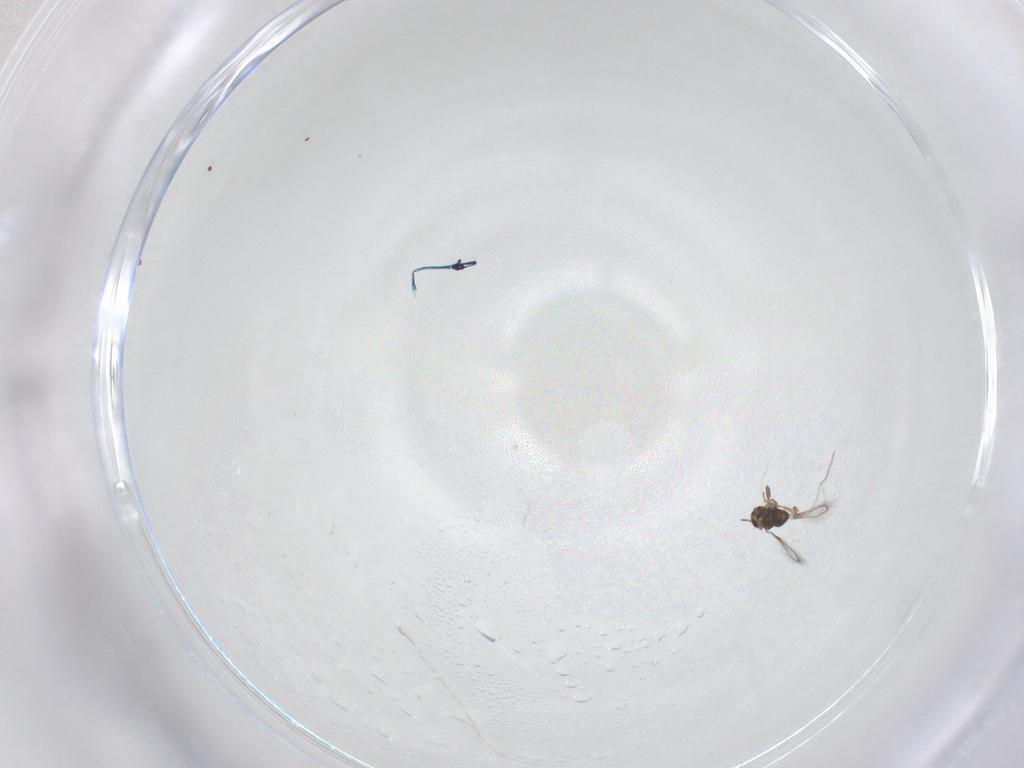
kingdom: Animalia
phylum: Arthropoda
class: Insecta
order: Hymenoptera
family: Mymaridae
